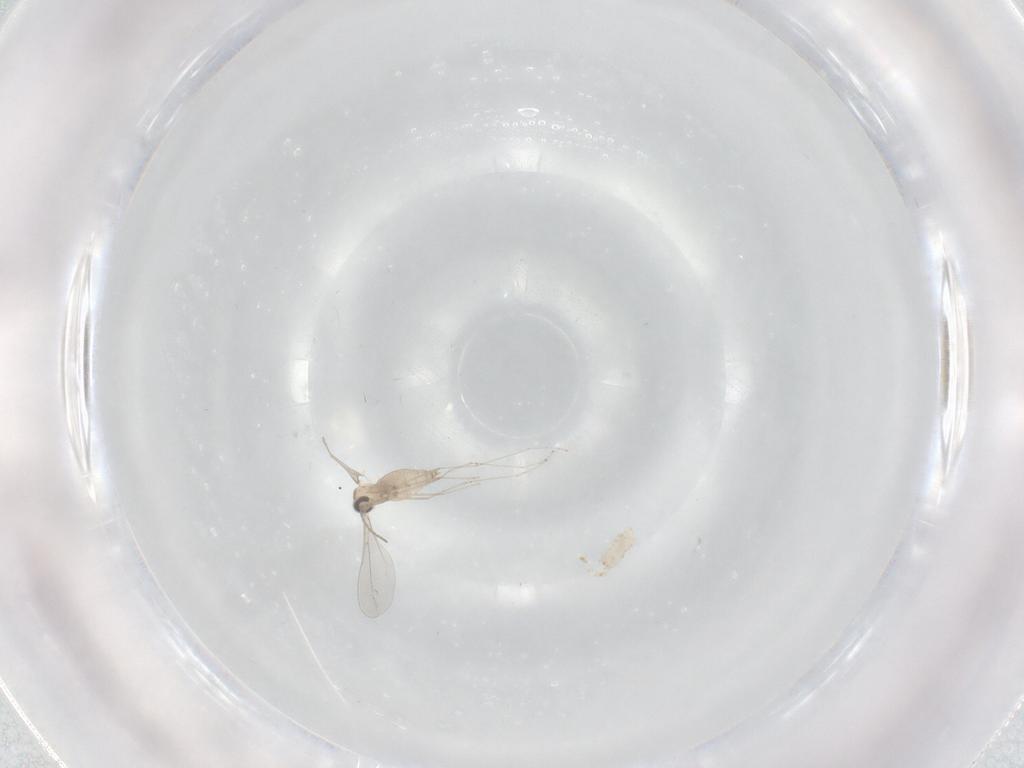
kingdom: Animalia
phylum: Arthropoda
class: Insecta
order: Diptera
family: Cecidomyiidae
